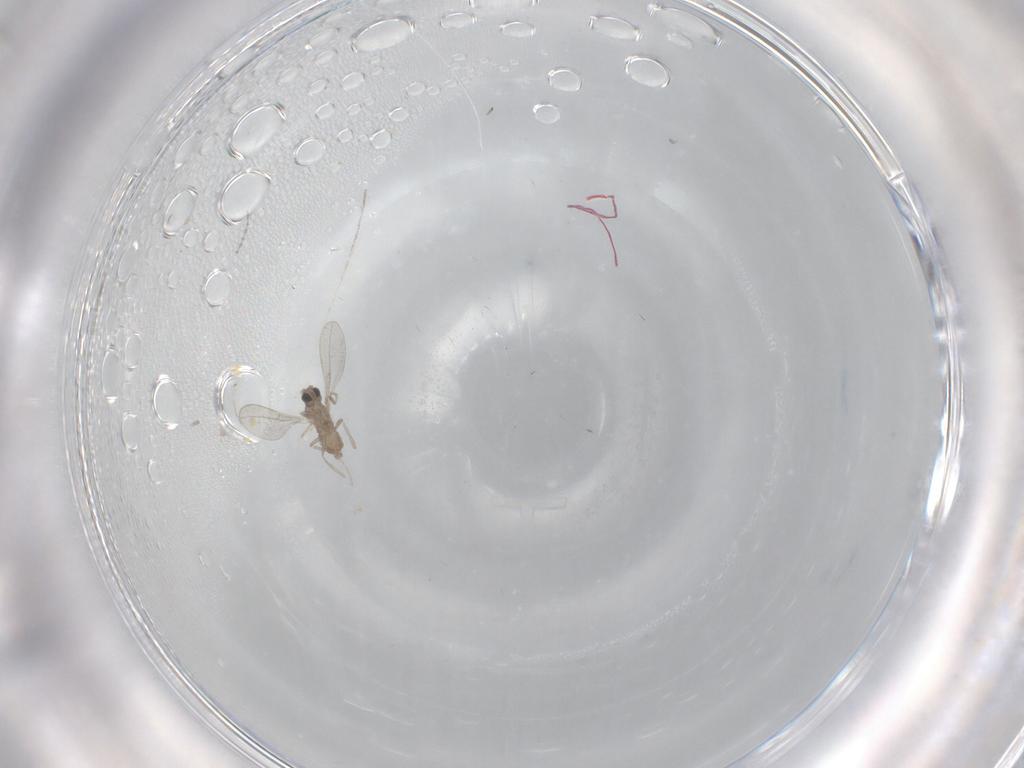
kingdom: Animalia
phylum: Arthropoda
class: Insecta
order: Diptera
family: Cecidomyiidae
